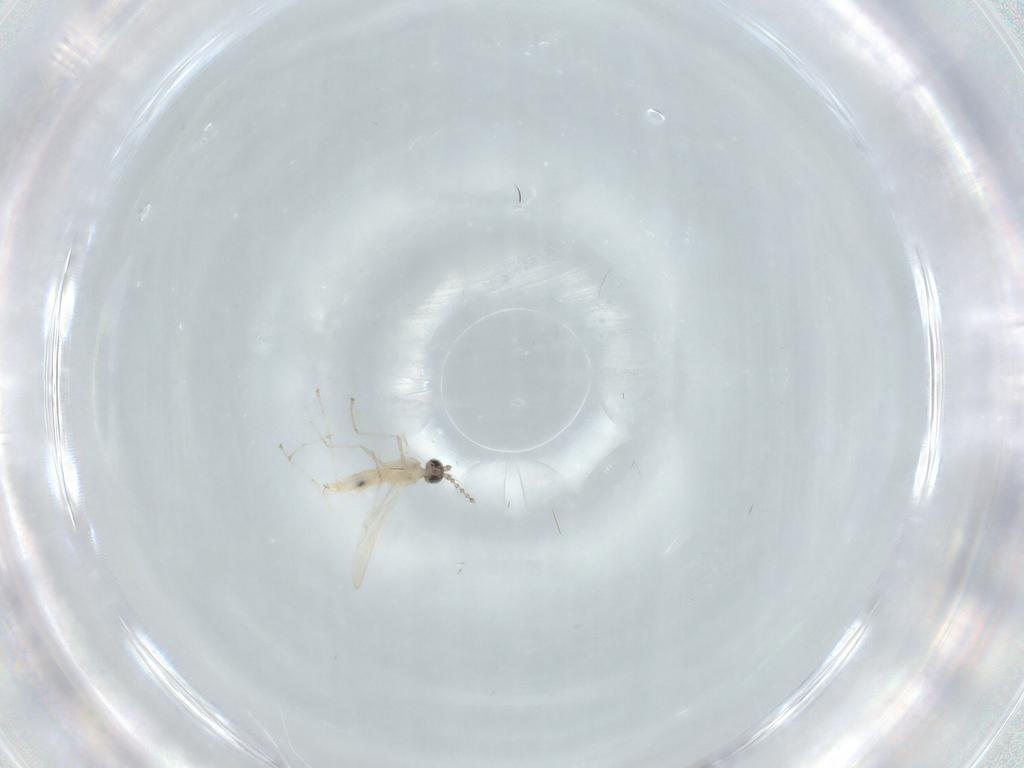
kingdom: Animalia
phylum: Arthropoda
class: Insecta
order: Diptera
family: Cecidomyiidae
